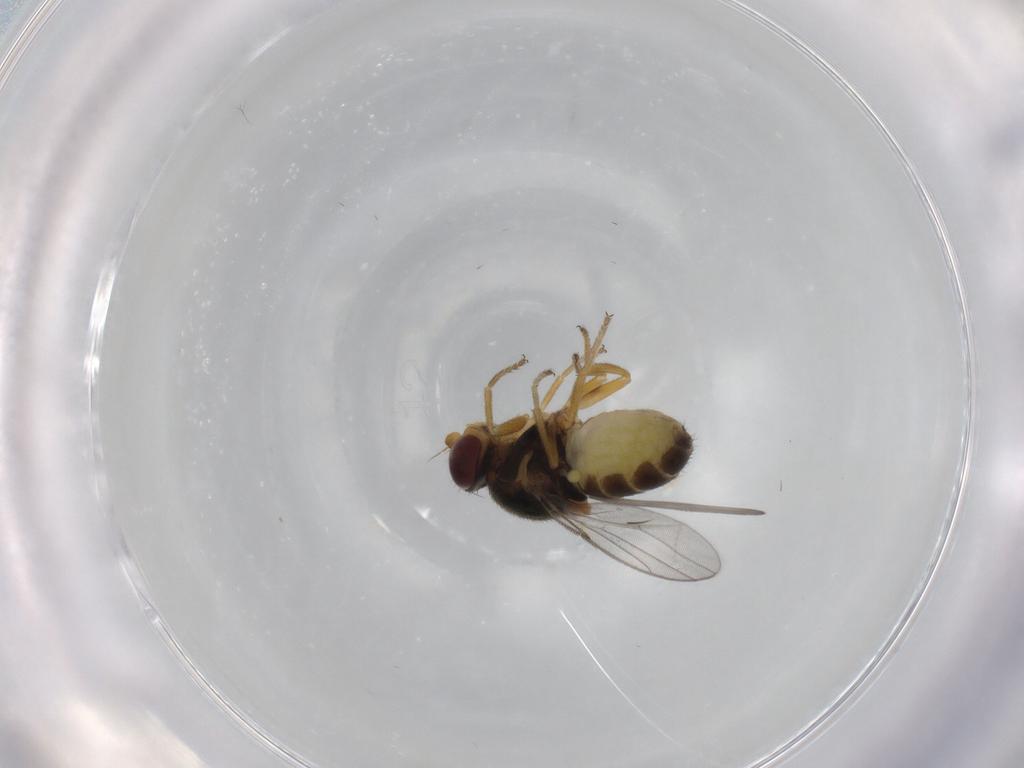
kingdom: Animalia
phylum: Arthropoda
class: Insecta
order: Diptera
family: Chloropidae
